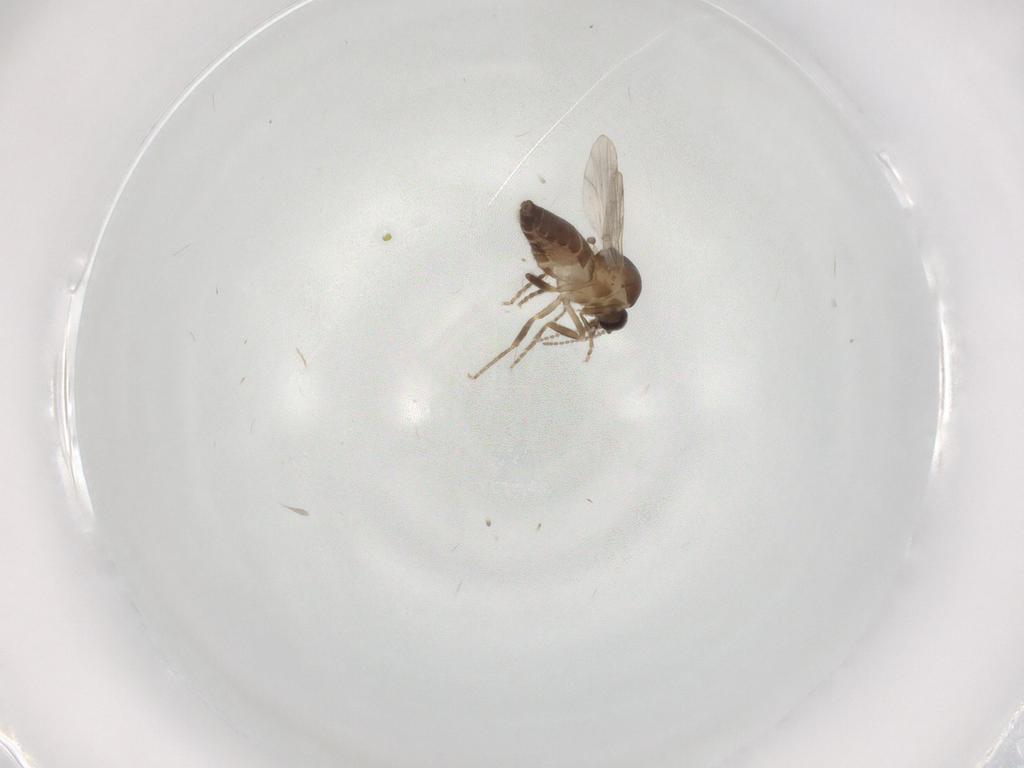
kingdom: Animalia
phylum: Arthropoda
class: Insecta
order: Diptera
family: Ceratopogonidae
